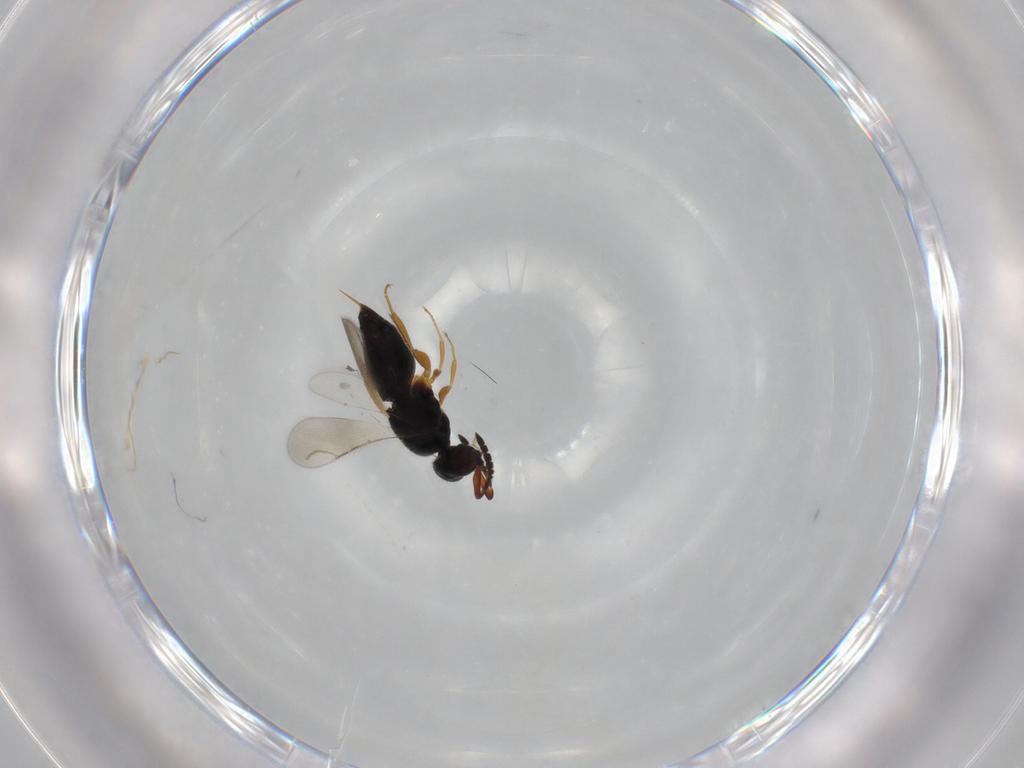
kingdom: Animalia
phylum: Arthropoda
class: Insecta
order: Hymenoptera
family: Ceraphronidae
